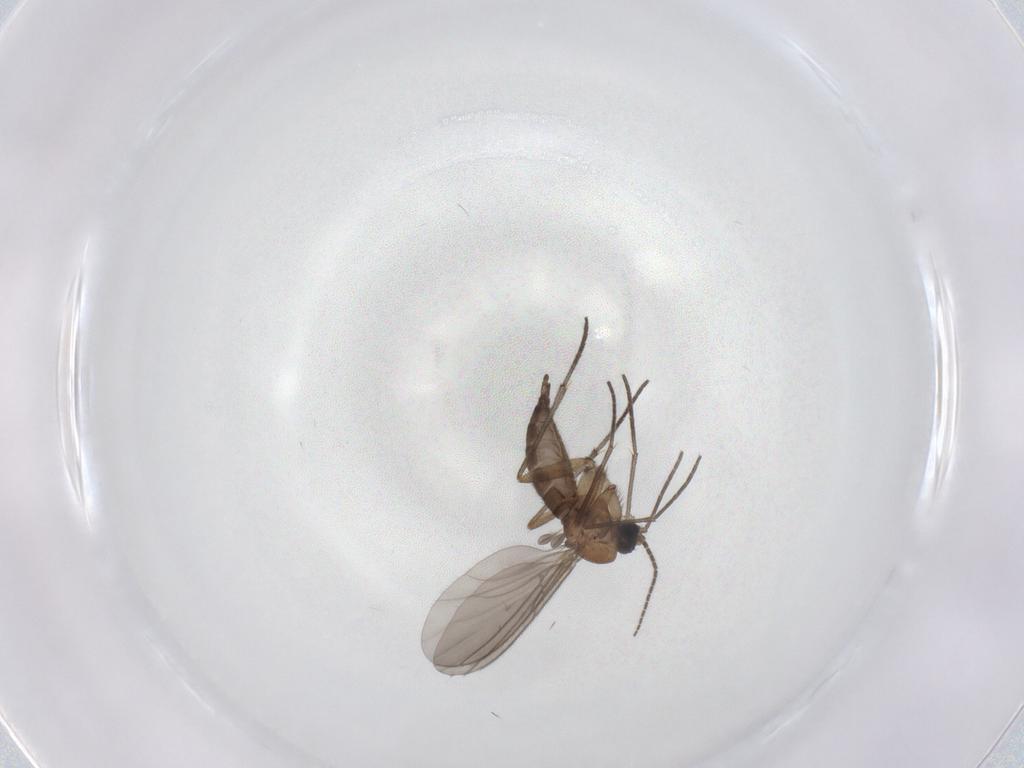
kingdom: Animalia
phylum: Arthropoda
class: Insecta
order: Diptera
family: Sciaridae
